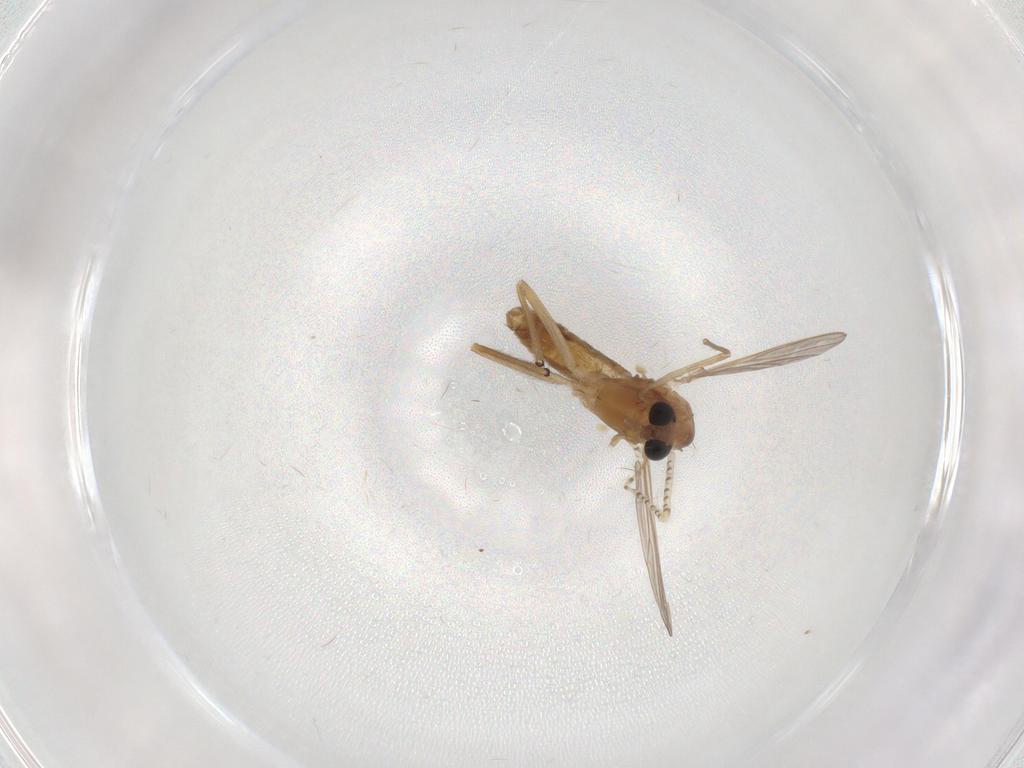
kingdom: Animalia
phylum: Arthropoda
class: Insecta
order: Diptera
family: Chironomidae
